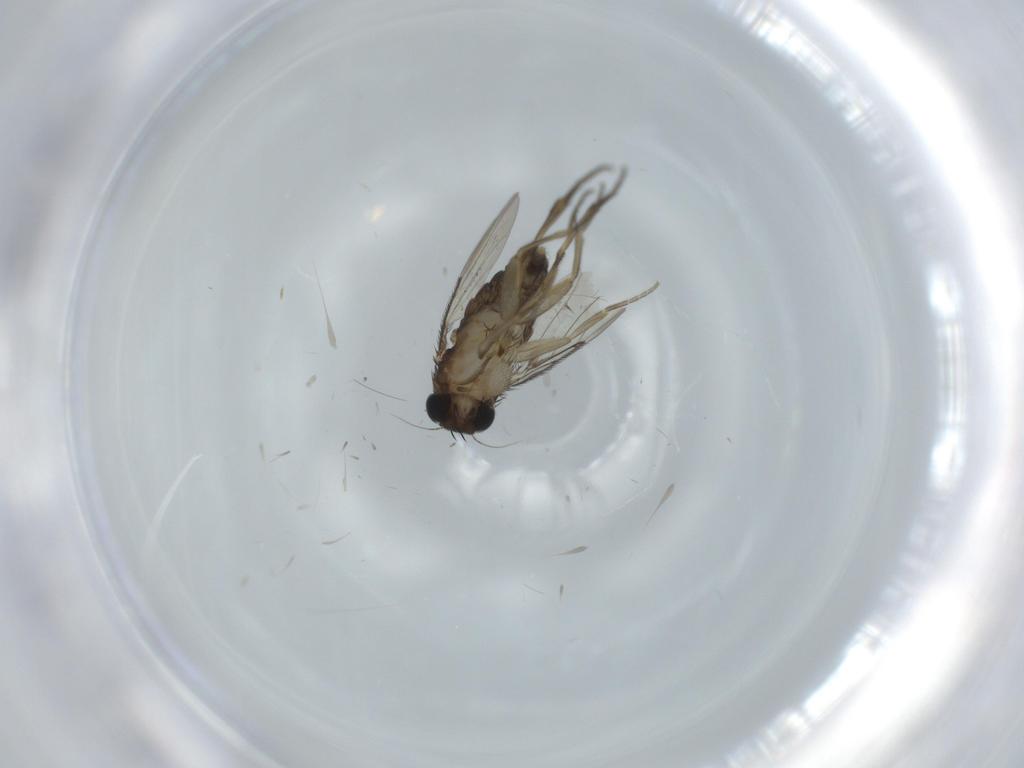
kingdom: Animalia
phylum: Arthropoda
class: Insecta
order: Diptera
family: Phoridae
